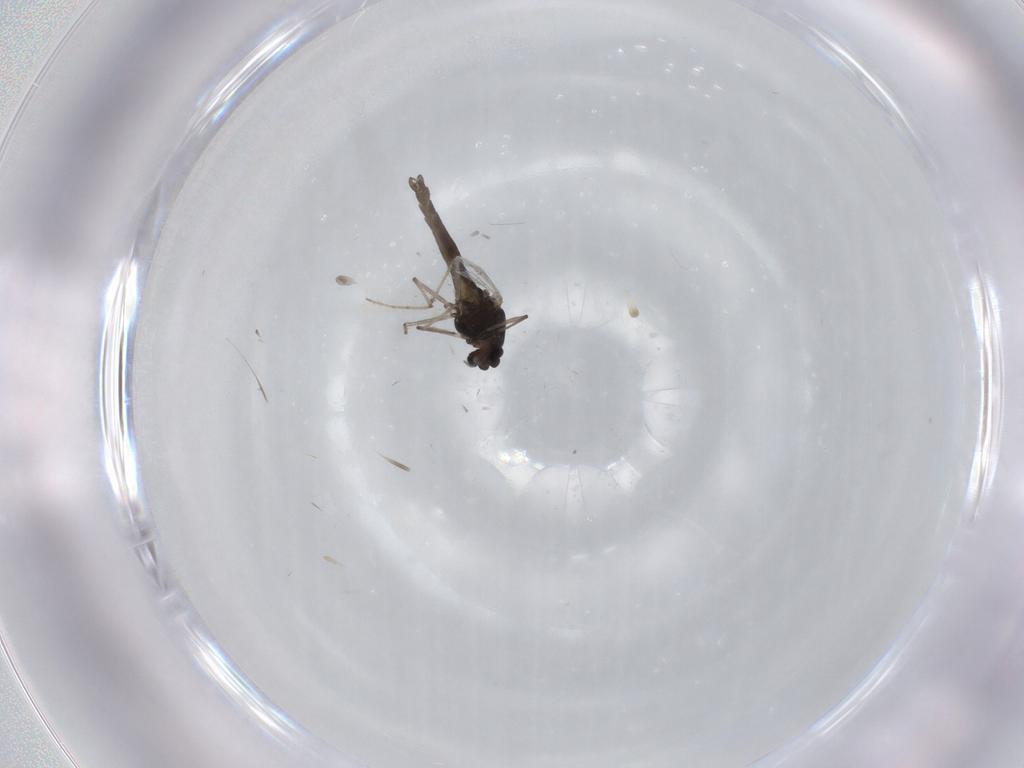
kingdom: Animalia
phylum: Arthropoda
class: Insecta
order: Diptera
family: Chironomidae
